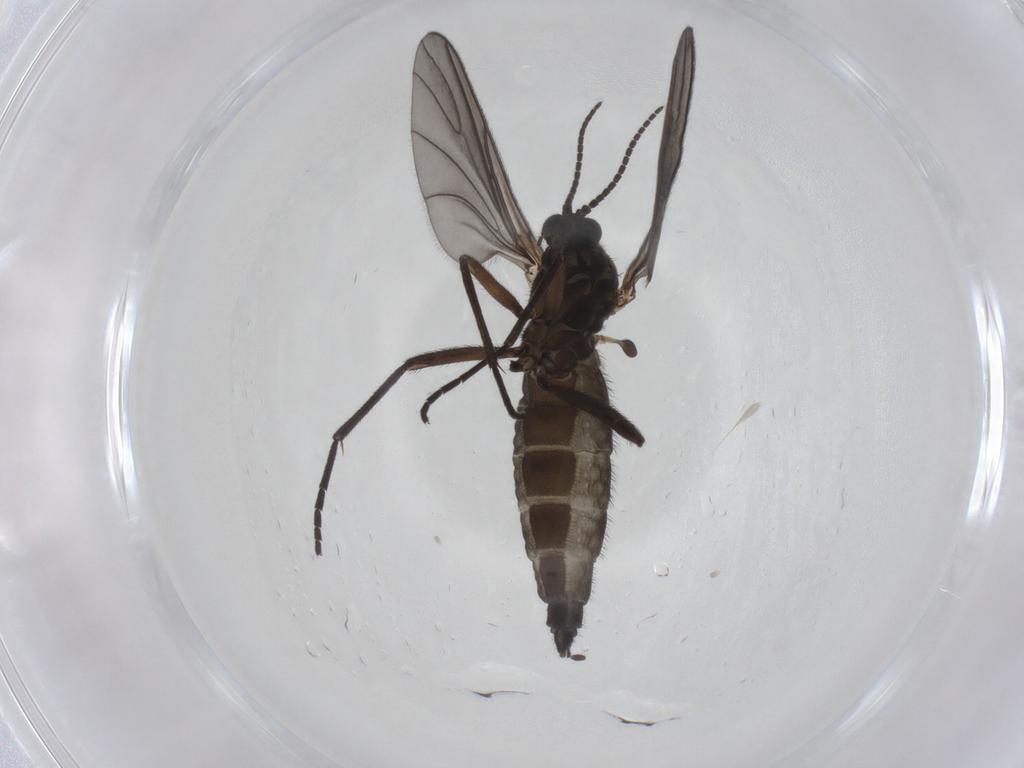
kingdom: Animalia
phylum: Arthropoda
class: Insecta
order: Diptera
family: Sciaridae
